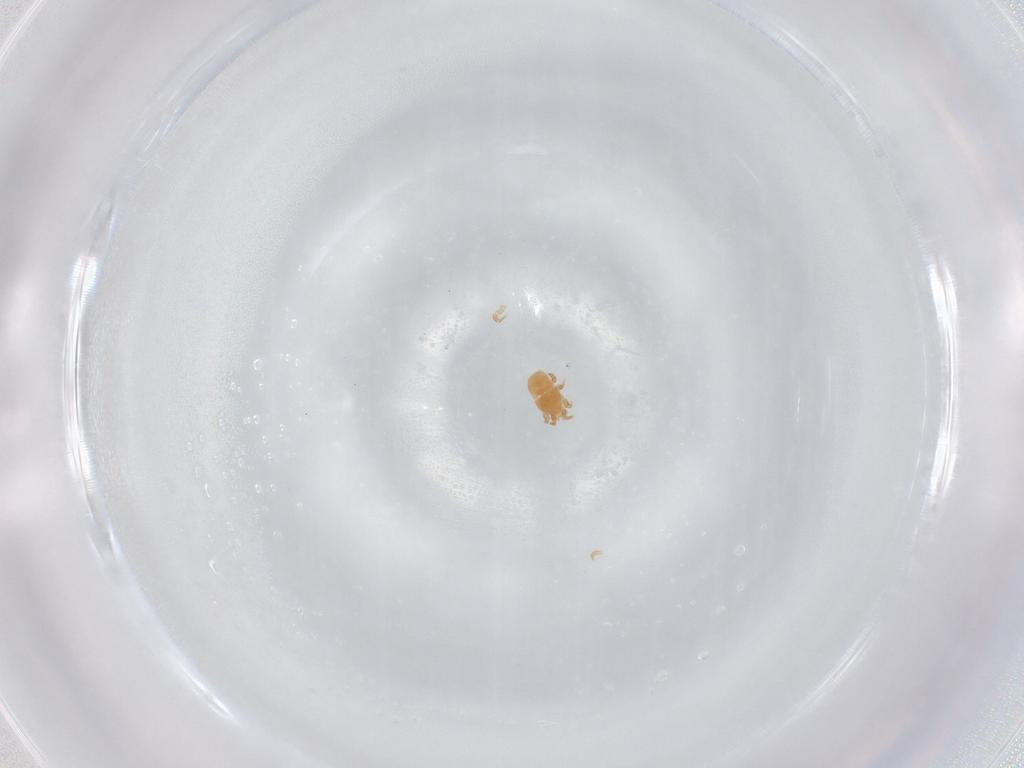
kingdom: Animalia
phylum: Arthropoda
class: Arachnida
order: Mesostigmata
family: Digamasellidae
